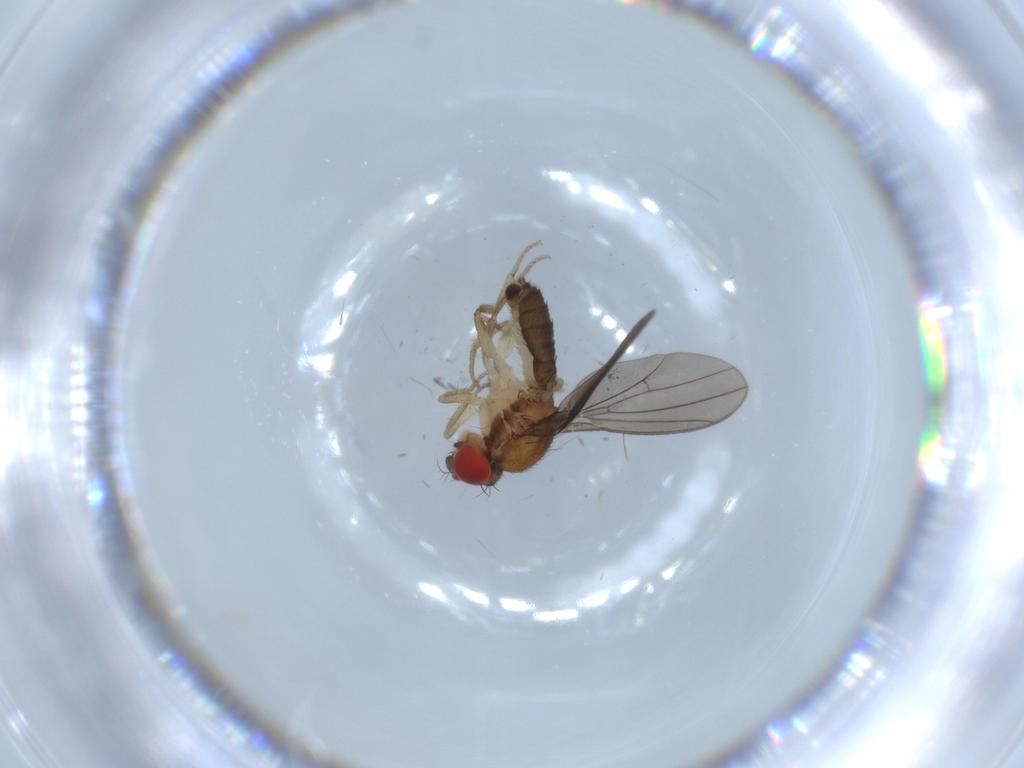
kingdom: Animalia
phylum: Arthropoda
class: Insecta
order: Diptera
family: Drosophilidae
